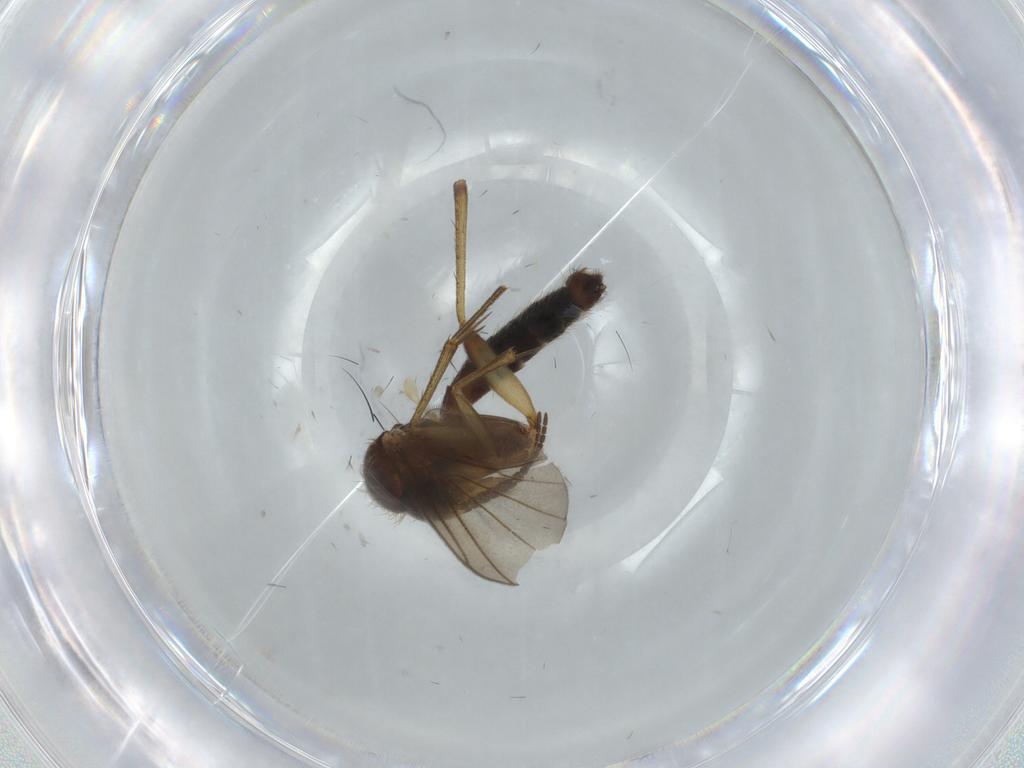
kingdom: Animalia
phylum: Arthropoda
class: Insecta
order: Diptera
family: Mycetophilidae
